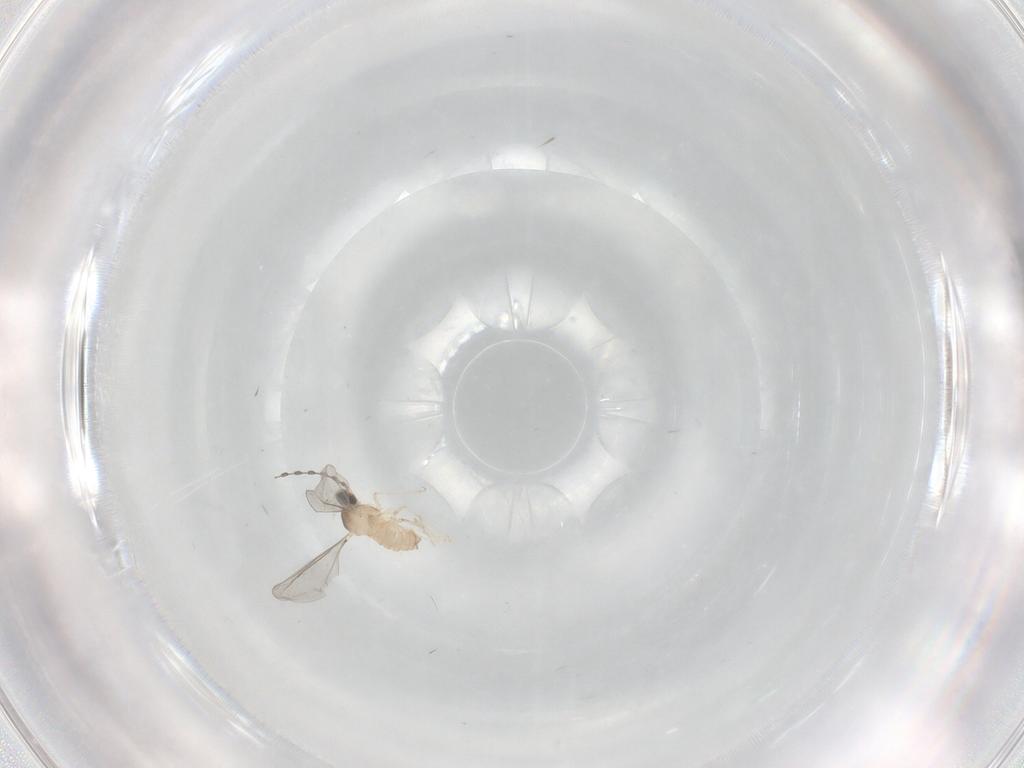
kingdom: Animalia
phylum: Arthropoda
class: Insecta
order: Diptera
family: Cecidomyiidae
